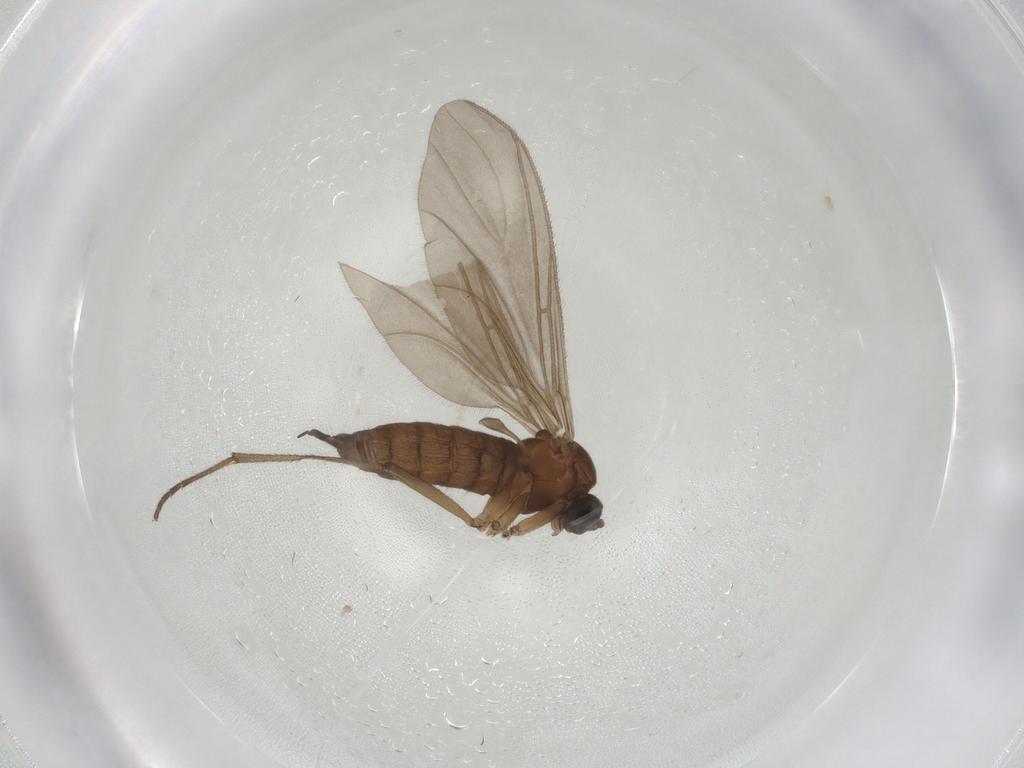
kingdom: Animalia
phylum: Arthropoda
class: Insecta
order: Diptera
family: Sciaridae
